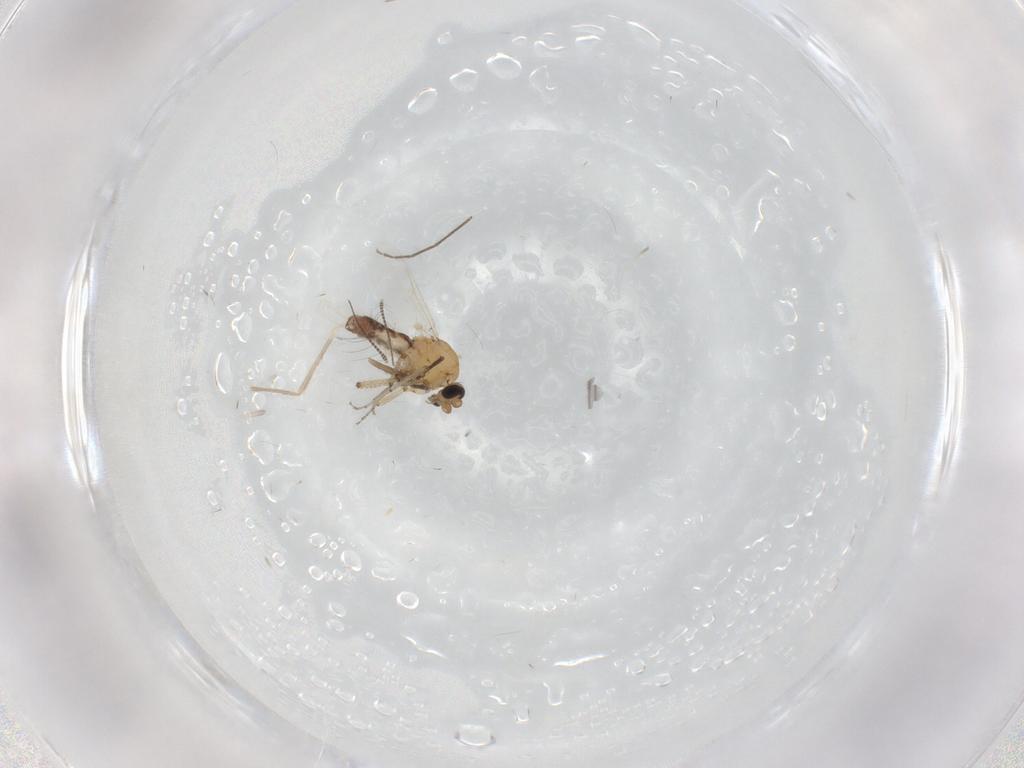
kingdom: Animalia
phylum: Arthropoda
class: Insecta
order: Diptera
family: Ceratopogonidae
